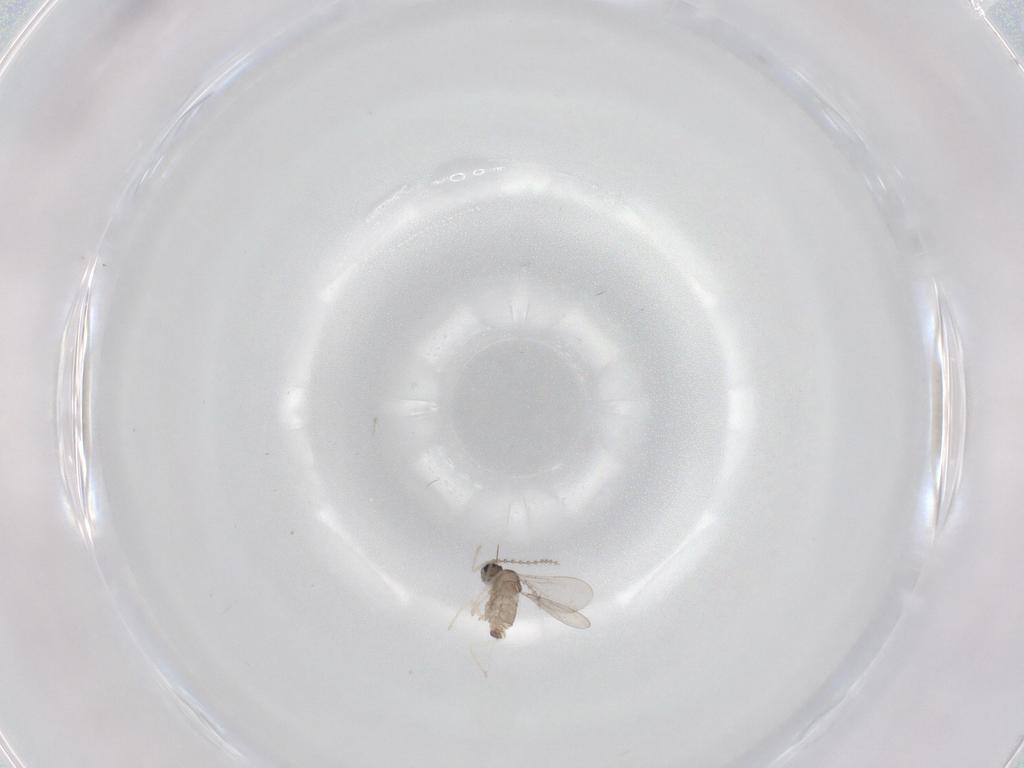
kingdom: Animalia
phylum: Arthropoda
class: Insecta
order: Diptera
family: Cecidomyiidae
